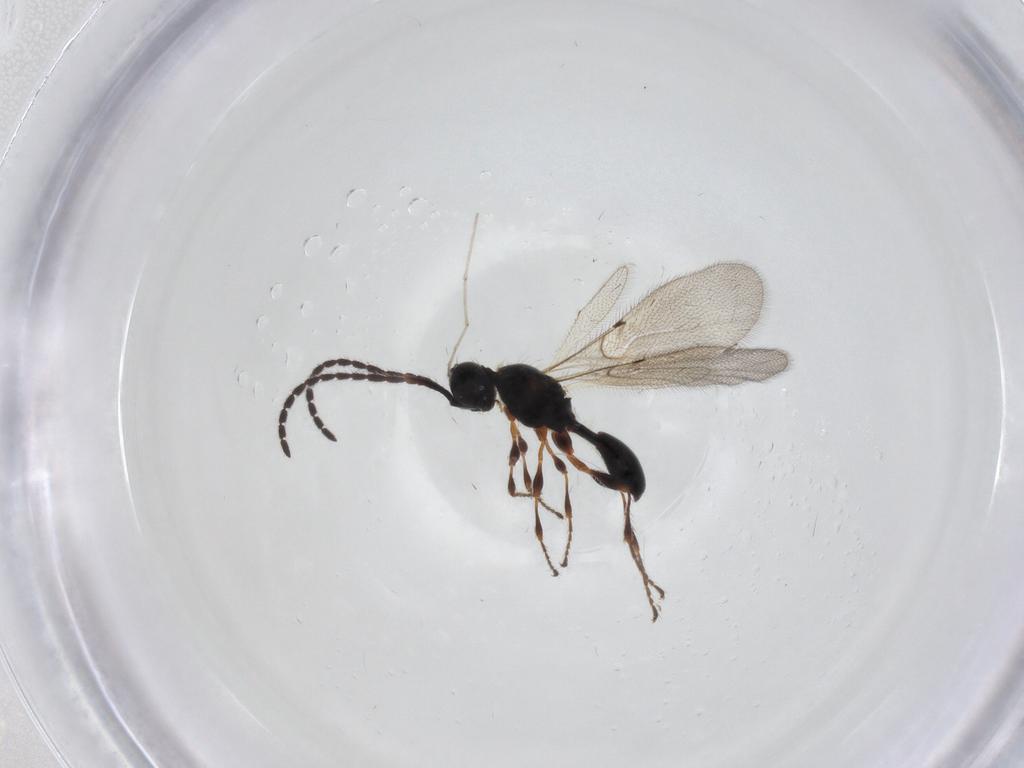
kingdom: Animalia
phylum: Arthropoda
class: Insecta
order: Hymenoptera
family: Diapriidae
